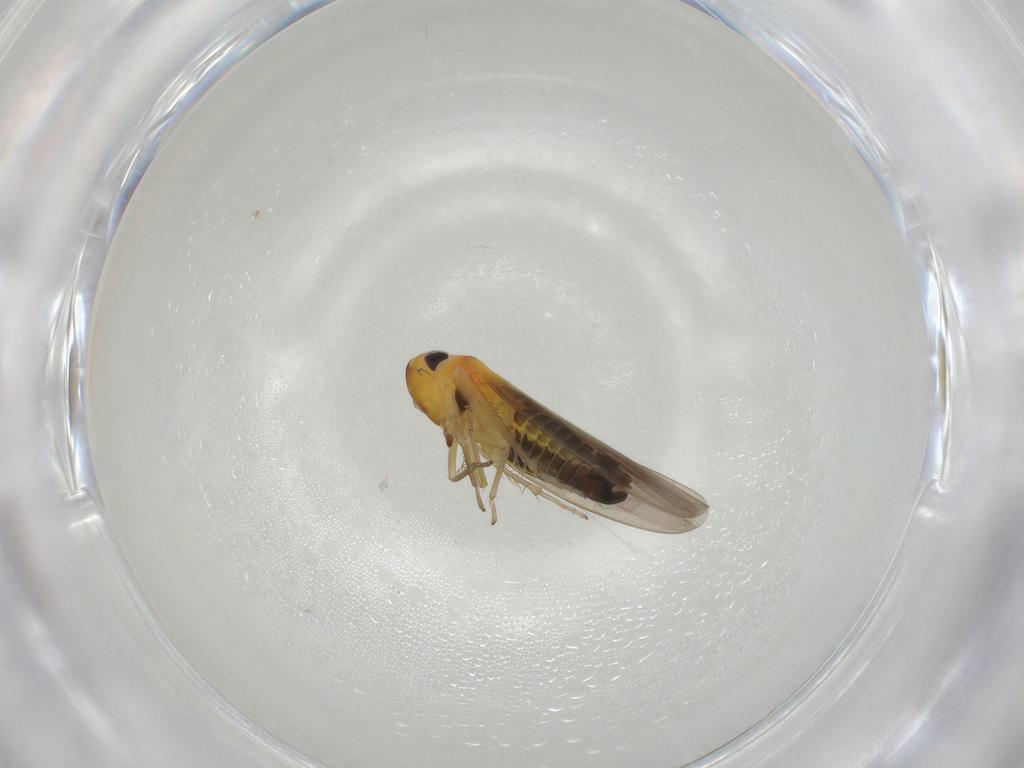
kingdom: Animalia
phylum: Arthropoda
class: Insecta
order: Hemiptera
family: Cicadellidae
